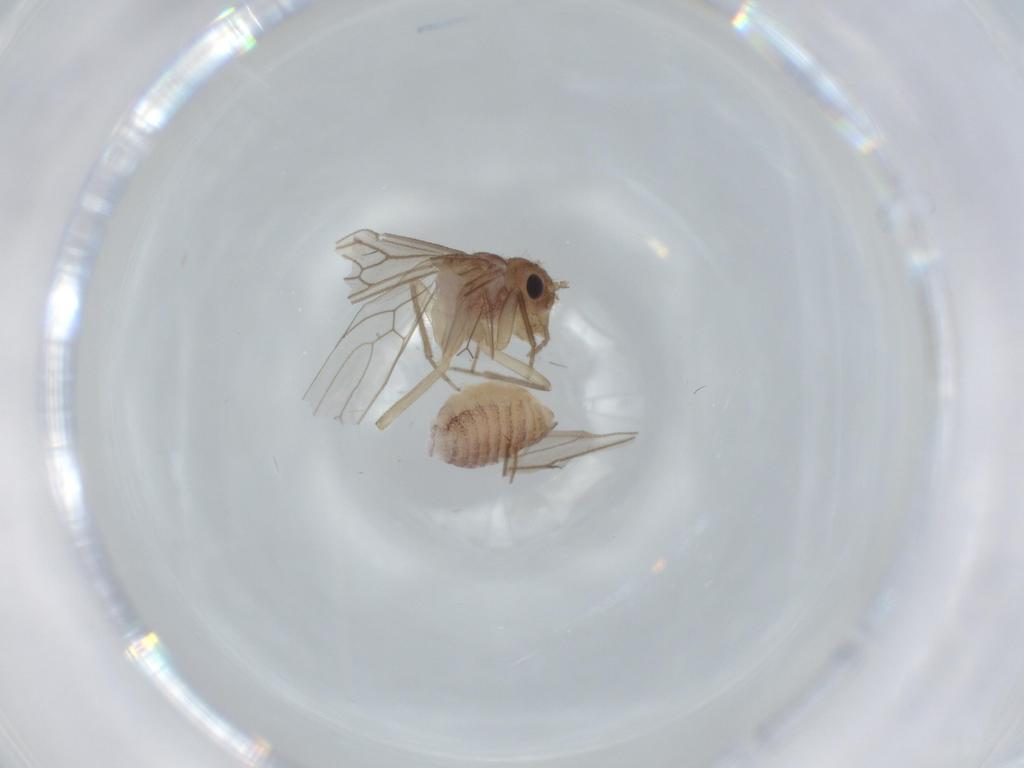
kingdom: Animalia
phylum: Arthropoda
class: Insecta
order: Psocodea
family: Cladiopsocidae
